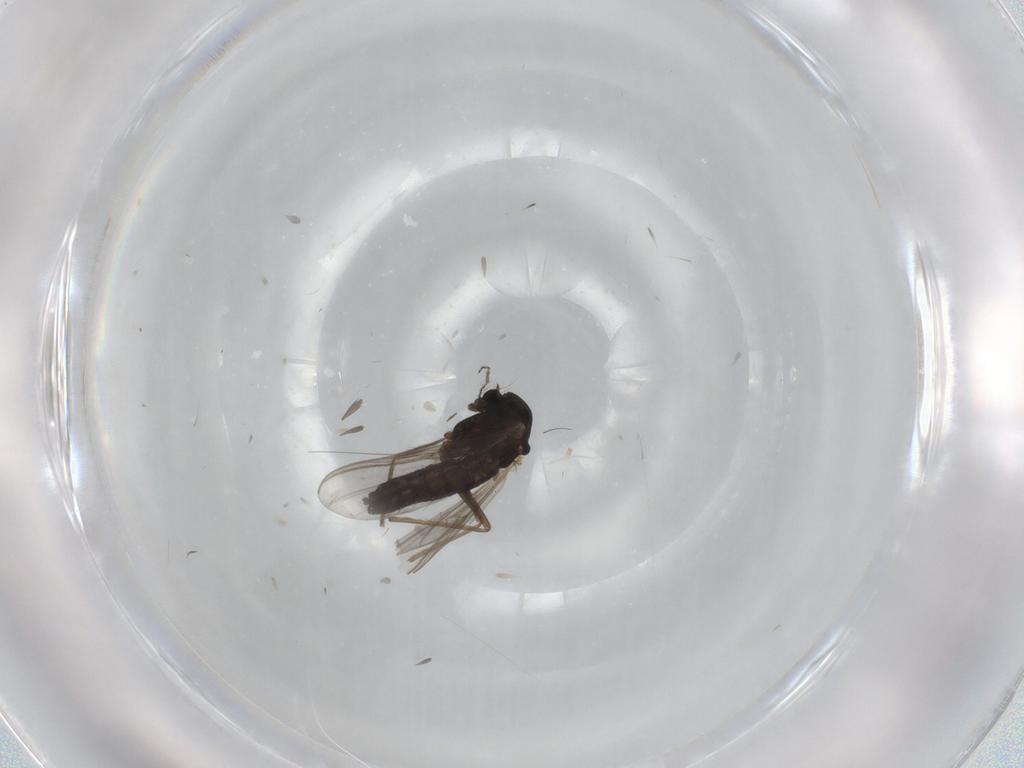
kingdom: Animalia
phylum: Arthropoda
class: Insecta
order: Diptera
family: Chironomidae
